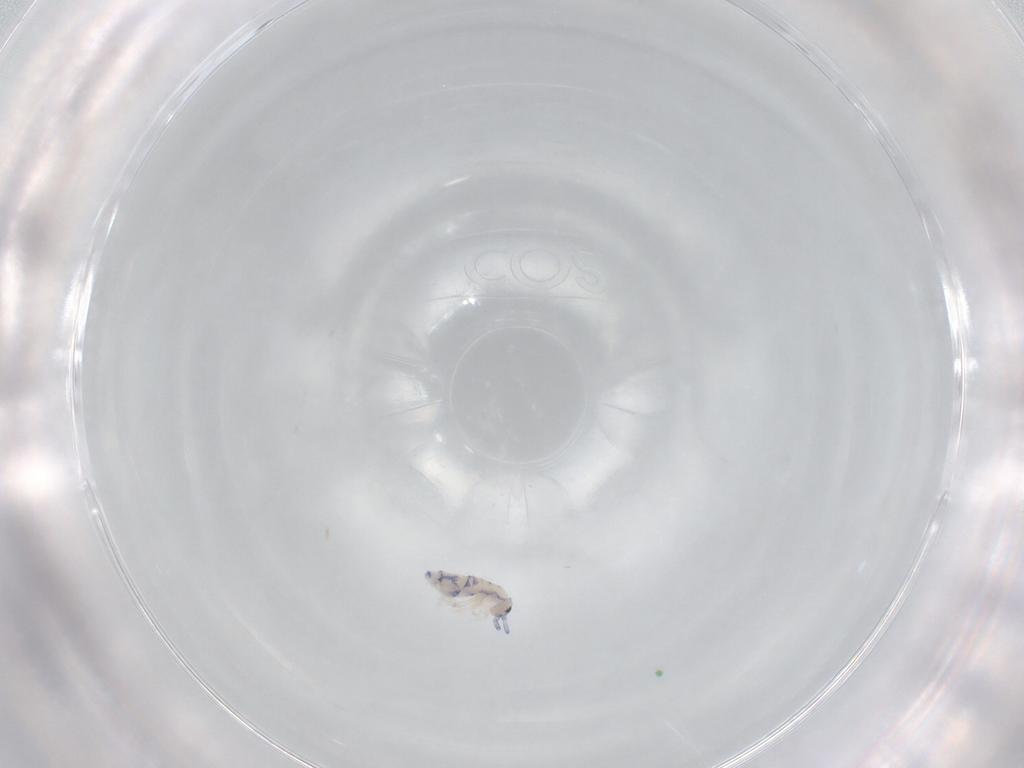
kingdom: Animalia
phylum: Arthropoda
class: Collembola
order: Entomobryomorpha
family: Entomobryidae
